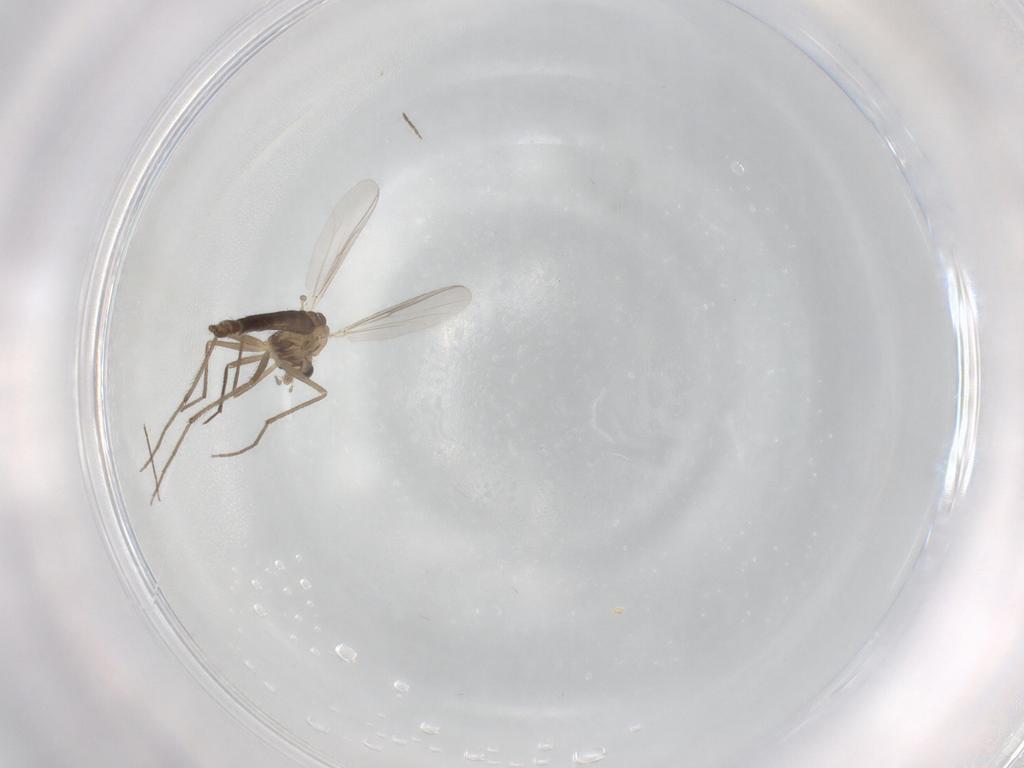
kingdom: Animalia
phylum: Arthropoda
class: Insecta
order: Diptera
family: Chironomidae
